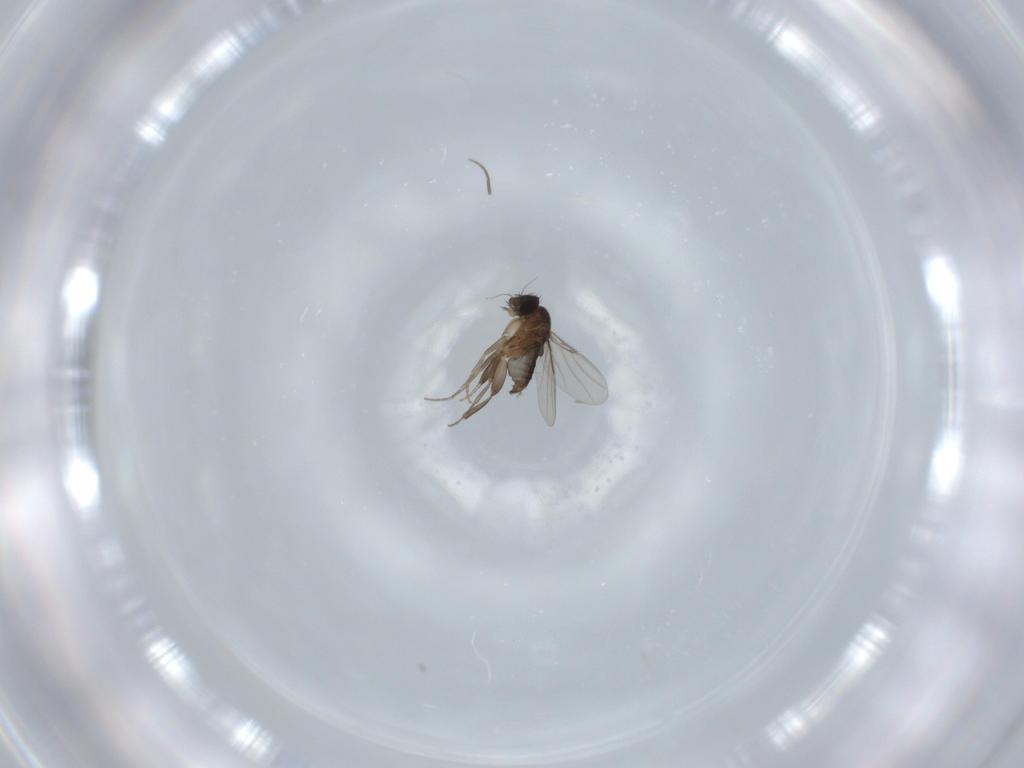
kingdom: Animalia
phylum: Arthropoda
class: Insecta
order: Diptera
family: Phoridae
